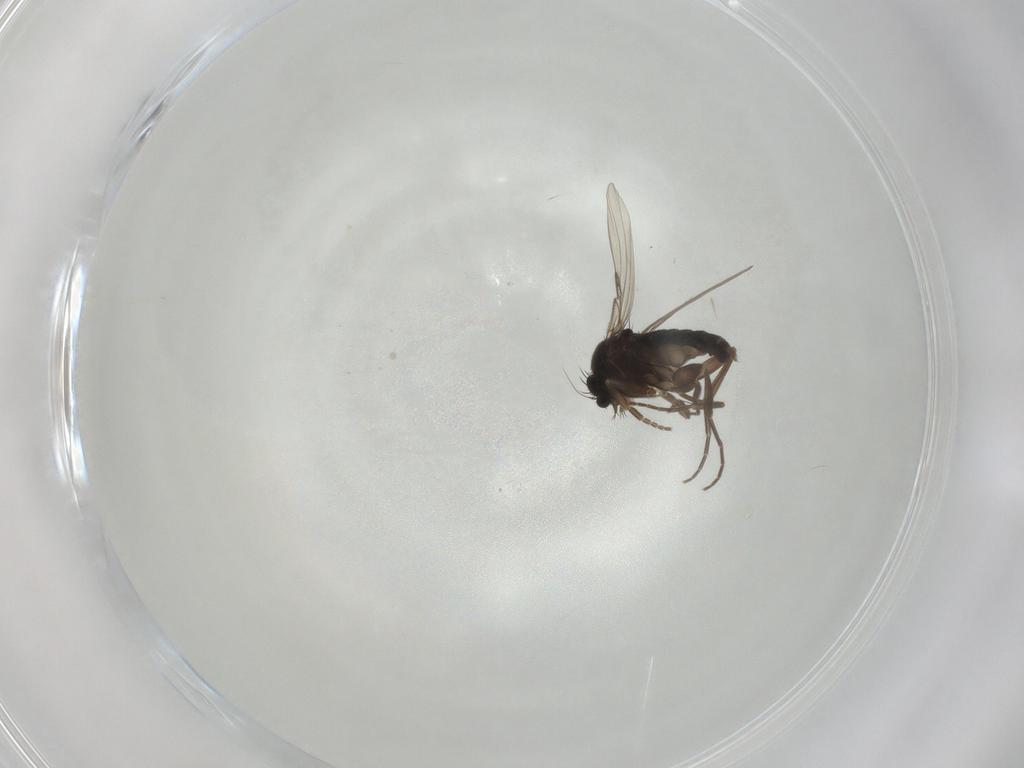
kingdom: Animalia
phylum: Arthropoda
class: Insecta
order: Diptera
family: Phoridae
